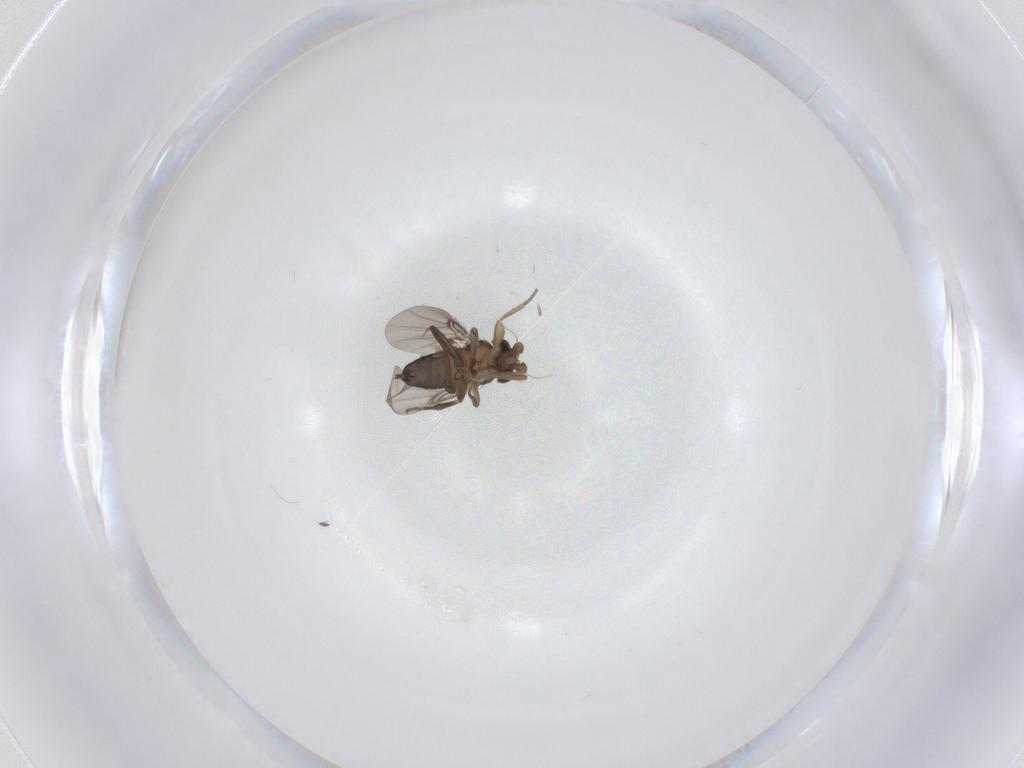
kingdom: Animalia
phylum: Arthropoda
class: Insecta
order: Diptera
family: Phoridae
